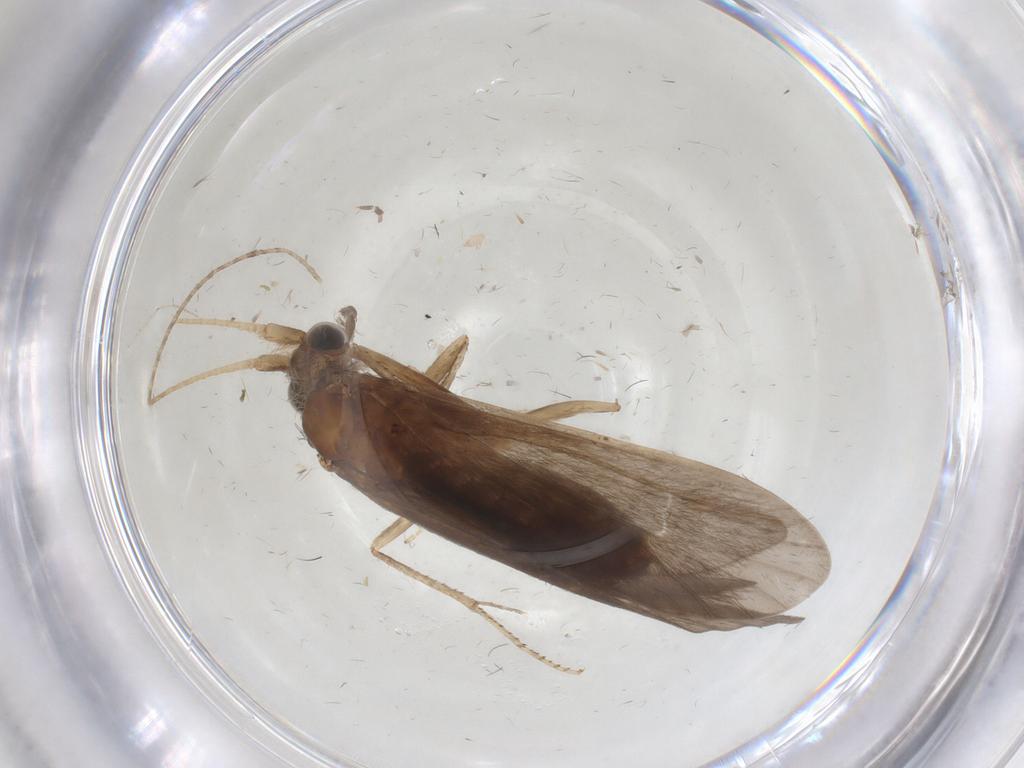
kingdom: Animalia
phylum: Arthropoda
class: Insecta
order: Trichoptera
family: Helicopsychidae
